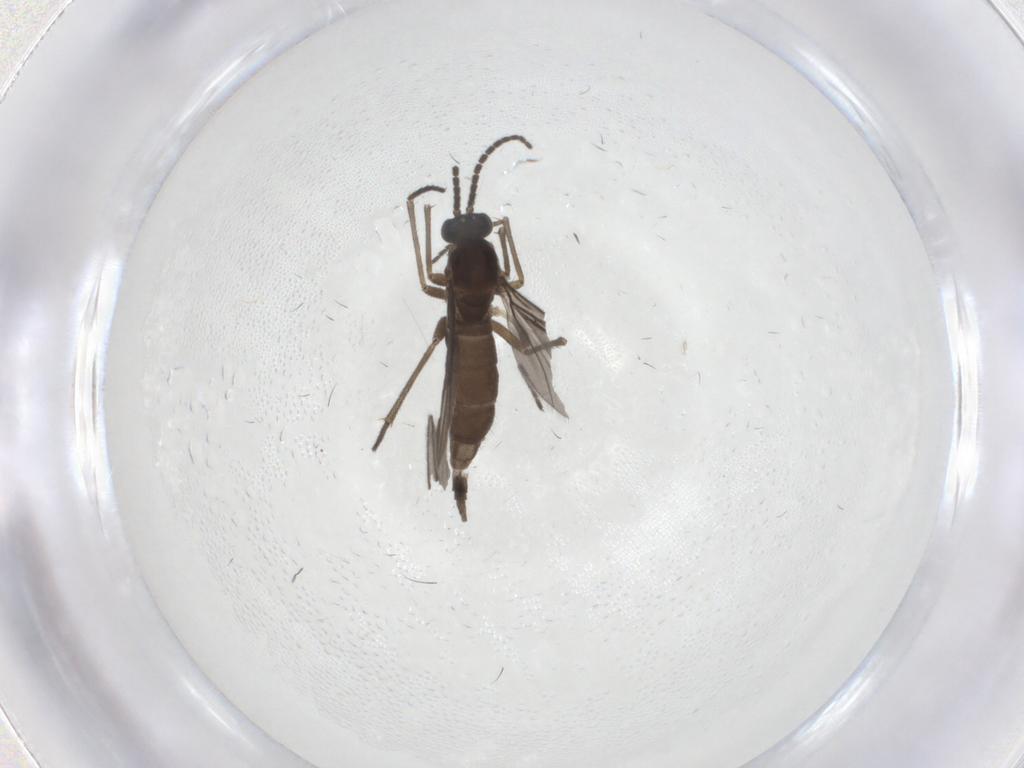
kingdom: Animalia
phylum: Arthropoda
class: Insecta
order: Diptera
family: Sciaridae
